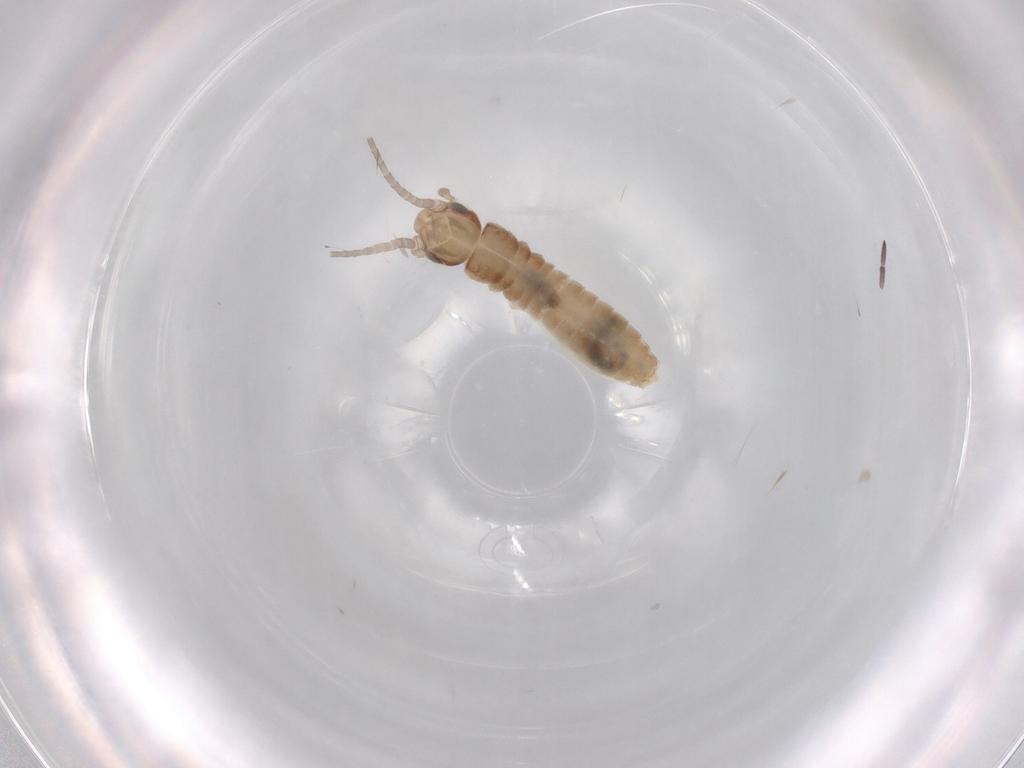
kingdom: Animalia
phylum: Arthropoda
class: Insecta
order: Orthoptera
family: Gryllidae
